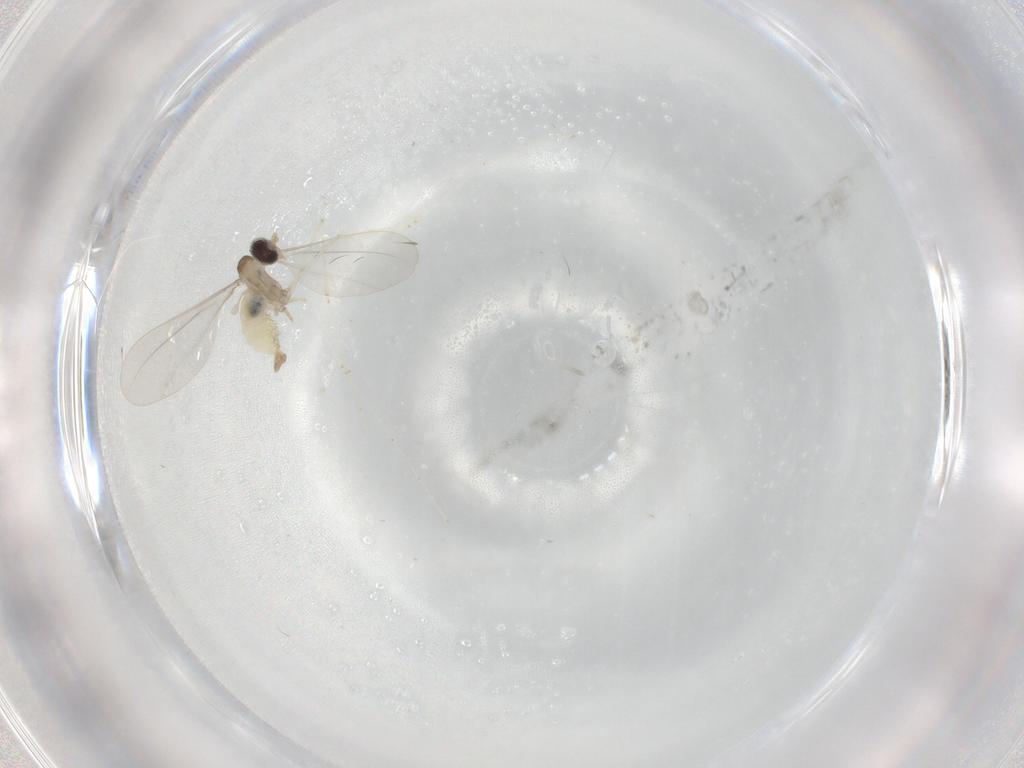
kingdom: Animalia
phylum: Arthropoda
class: Insecta
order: Diptera
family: Cecidomyiidae
